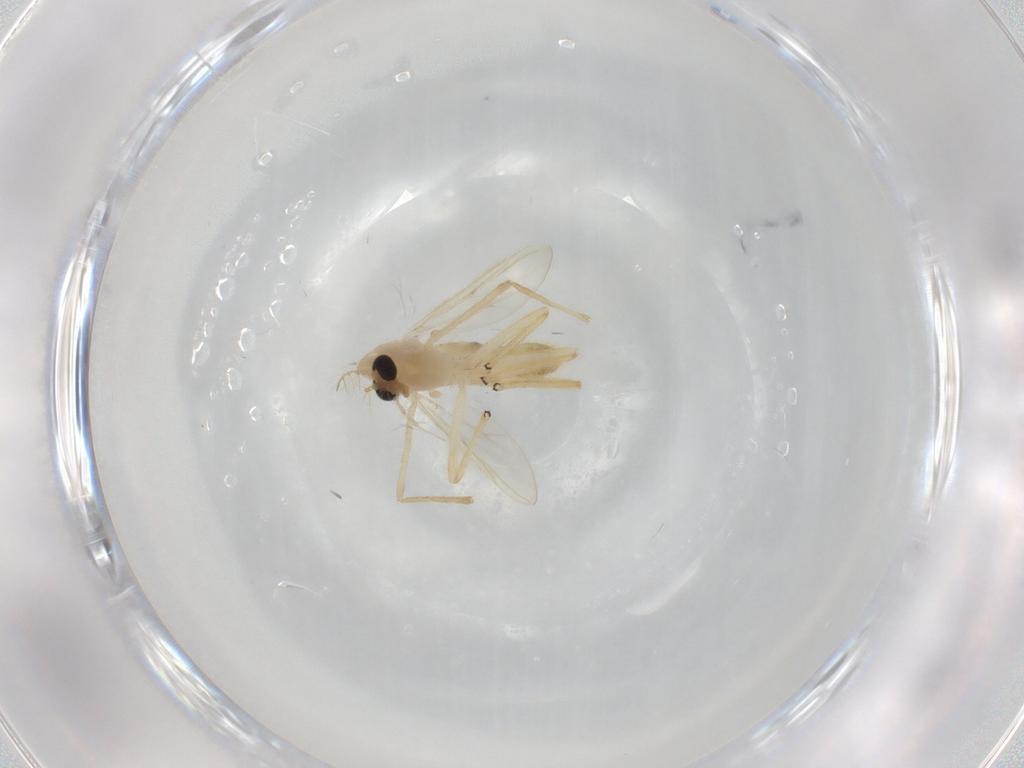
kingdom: Animalia
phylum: Arthropoda
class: Insecta
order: Diptera
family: Chironomidae
